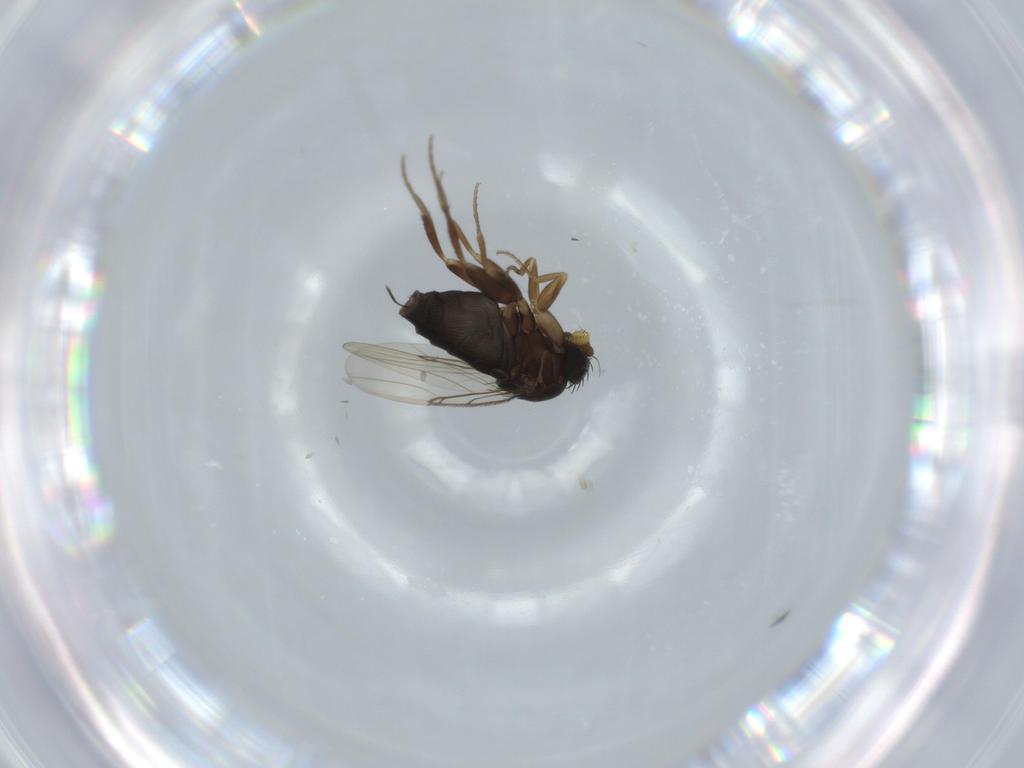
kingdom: Animalia
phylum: Arthropoda
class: Insecta
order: Diptera
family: Phoridae
